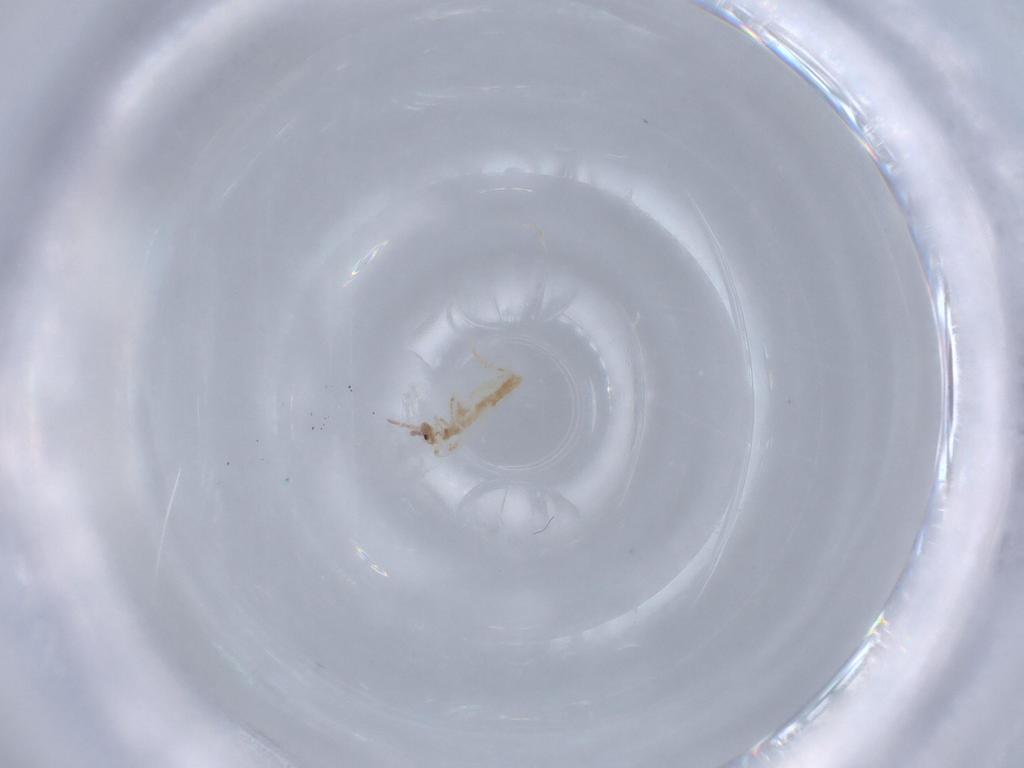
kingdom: Animalia
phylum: Arthropoda
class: Collembola
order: Entomobryomorpha
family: Entomobryidae
